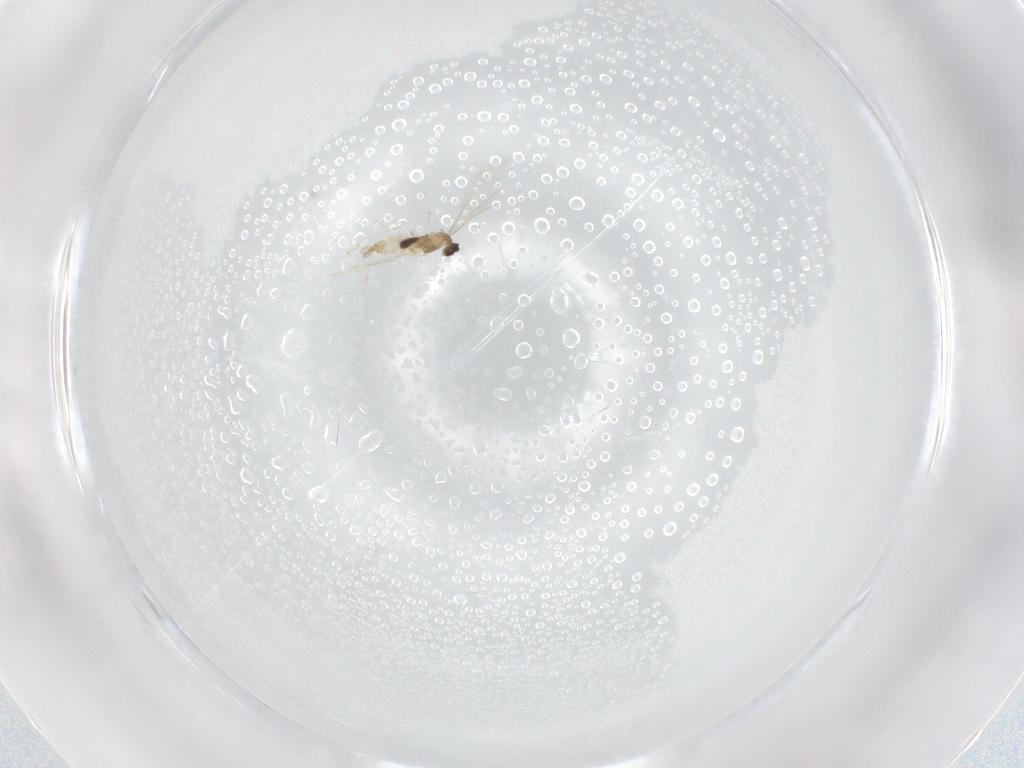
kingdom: Animalia
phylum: Arthropoda
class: Insecta
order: Diptera
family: Cecidomyiidae
